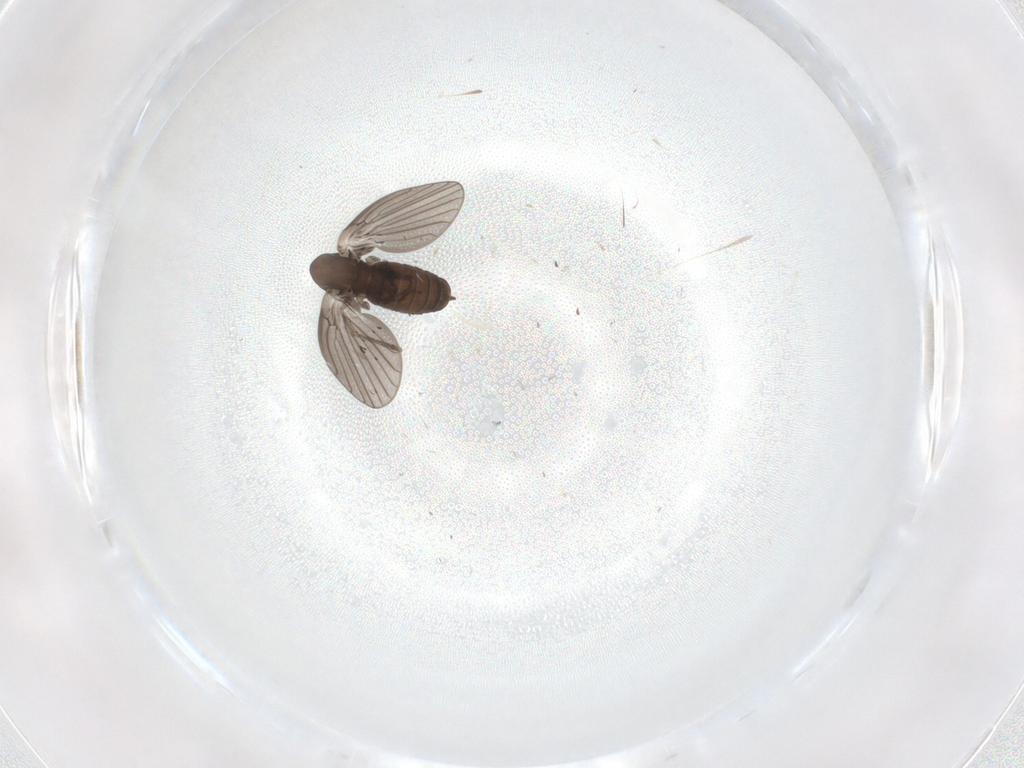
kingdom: Animalia
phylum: Arthropoda
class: Insecta
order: Diptera
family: Psychodidae
